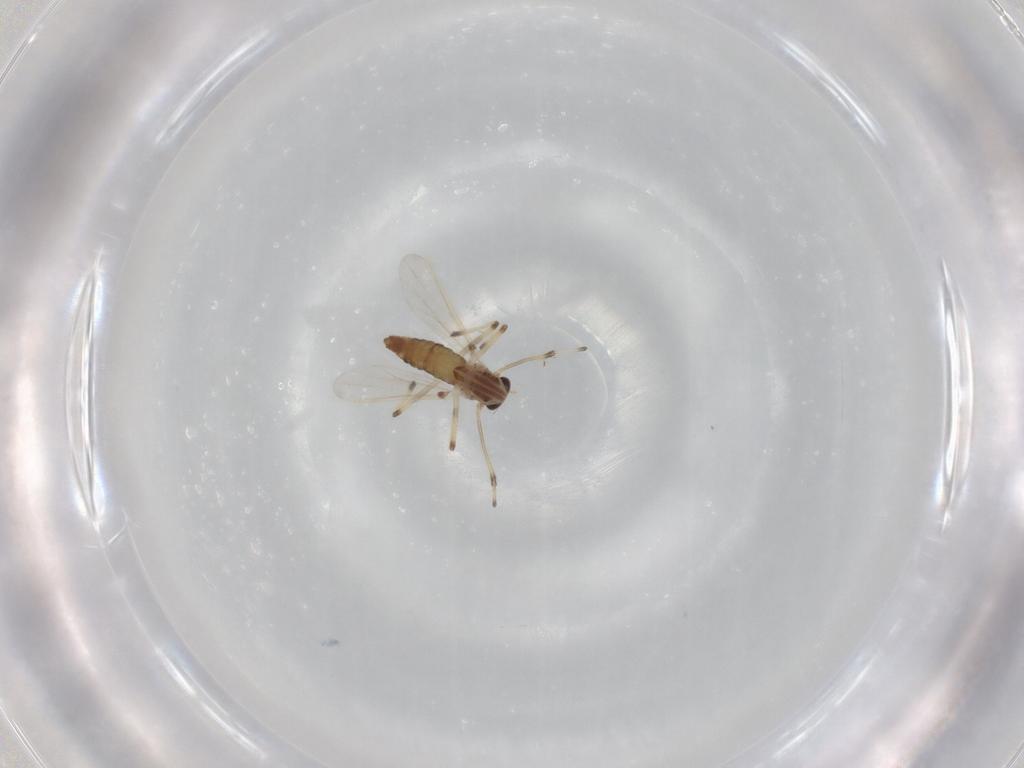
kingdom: Animalia
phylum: Arthropoda
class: Insecta
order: Diptera
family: Chironomidae
